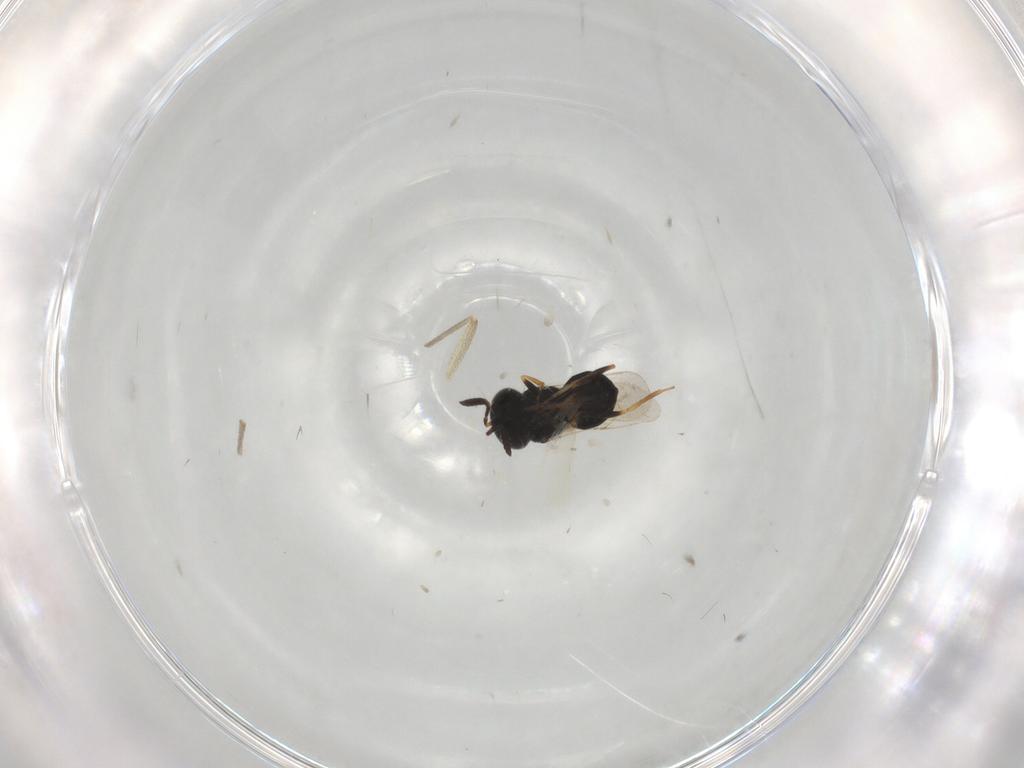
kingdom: Animalia
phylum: Arthropoda
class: Insecta
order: Hymenoptera
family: Scelionidae
